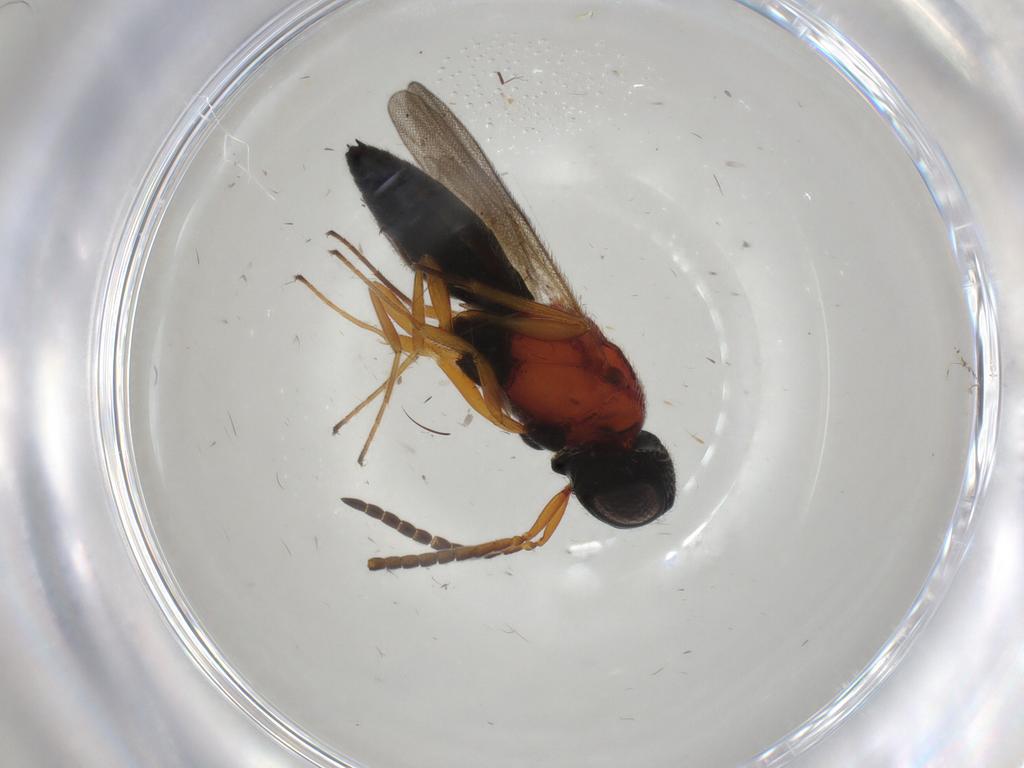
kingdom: Animalia
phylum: Arthropoda
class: Insecta
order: Hymenoptera
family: Scelionidae
